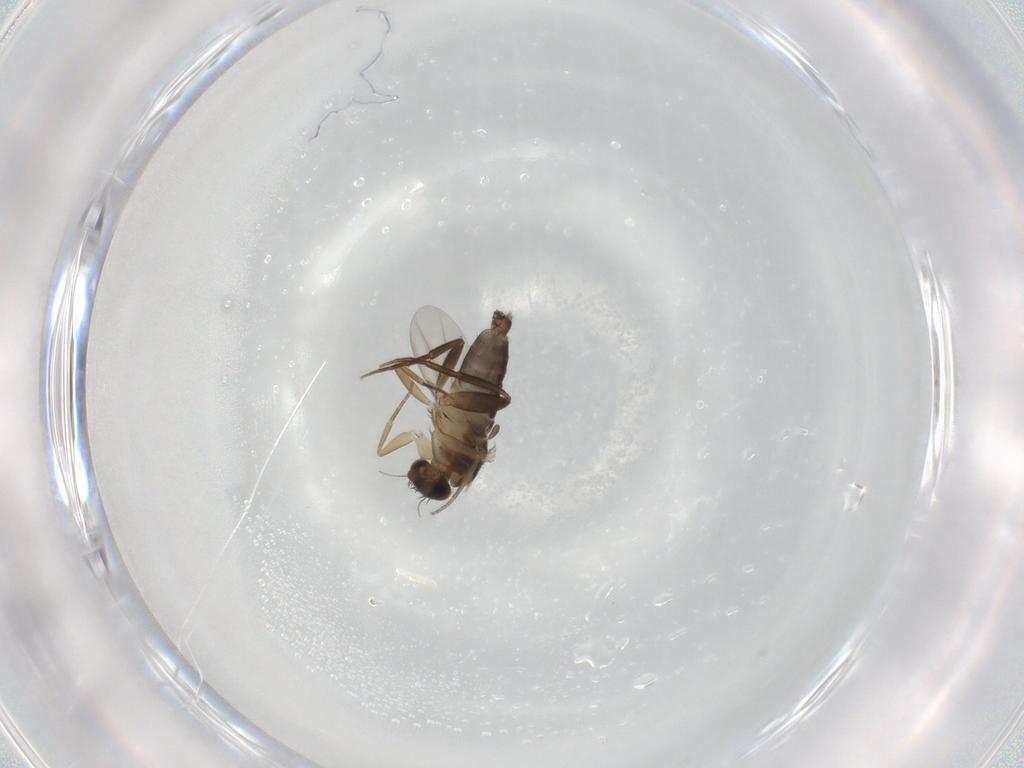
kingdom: Animalia
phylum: Arthropoda
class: Insecta
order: Diptera
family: Phoridae
